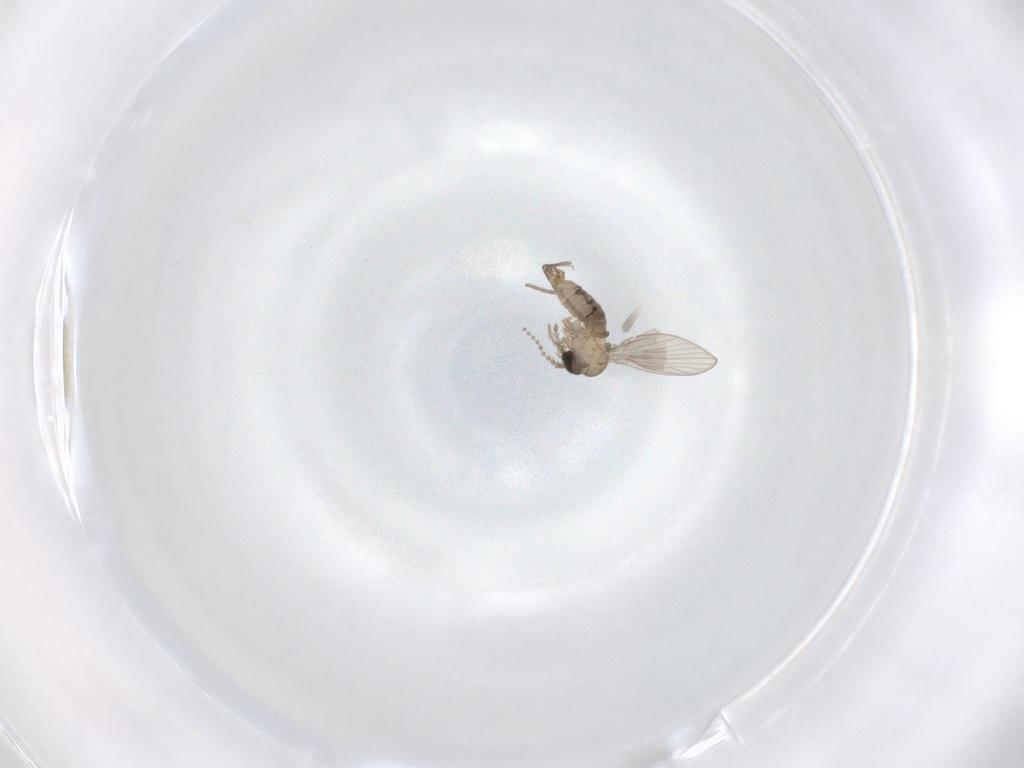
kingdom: Animalia
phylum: Arthropoda
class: Insecta
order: Diptera
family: Psychodidae
